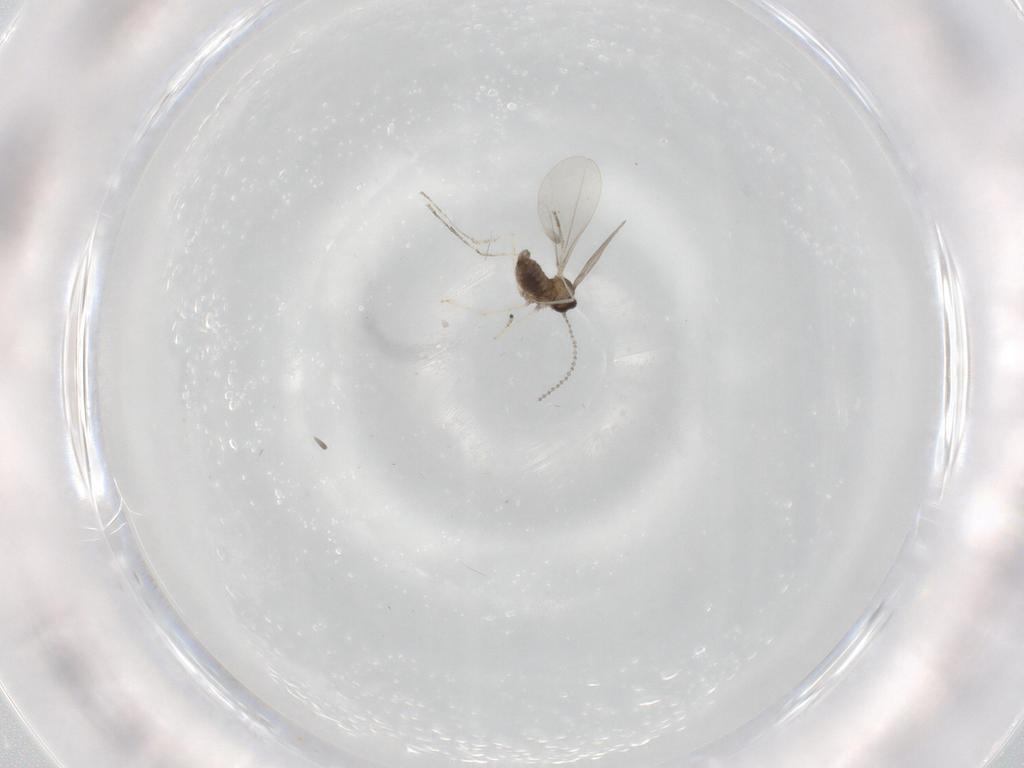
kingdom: Animalia
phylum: Arthropoda
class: Insecta
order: Diptera
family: Cecidomyiidae
